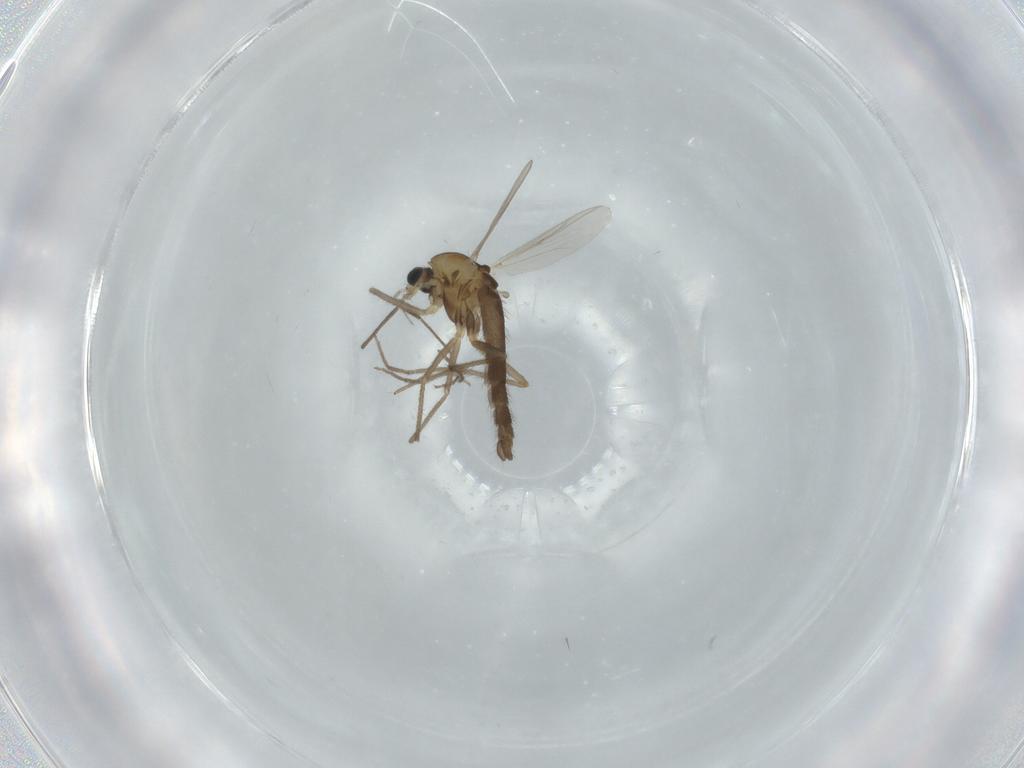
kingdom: Animalia
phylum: Arthropoda
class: Insecta
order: Diptera
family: Chironomidae
